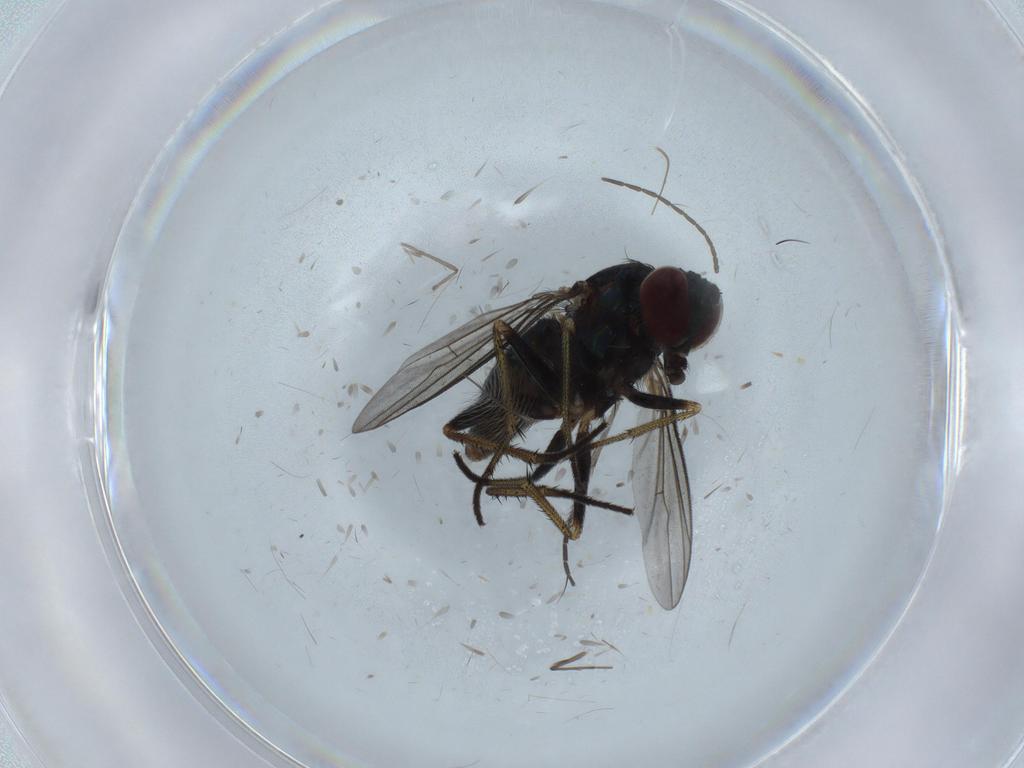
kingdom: Animalia
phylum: Arthropoda
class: Insecta
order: Diptera
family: Dolichopodidae
